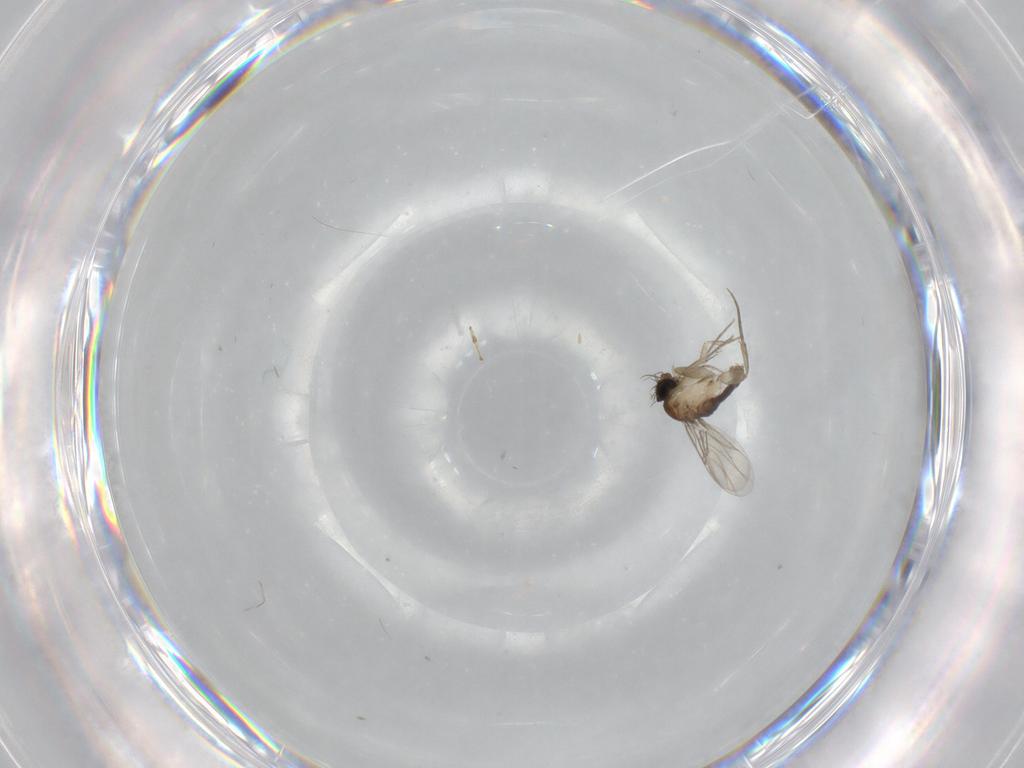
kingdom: Animalia
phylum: Arthropoda
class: Insecta
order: Diptera
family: Phoridae
